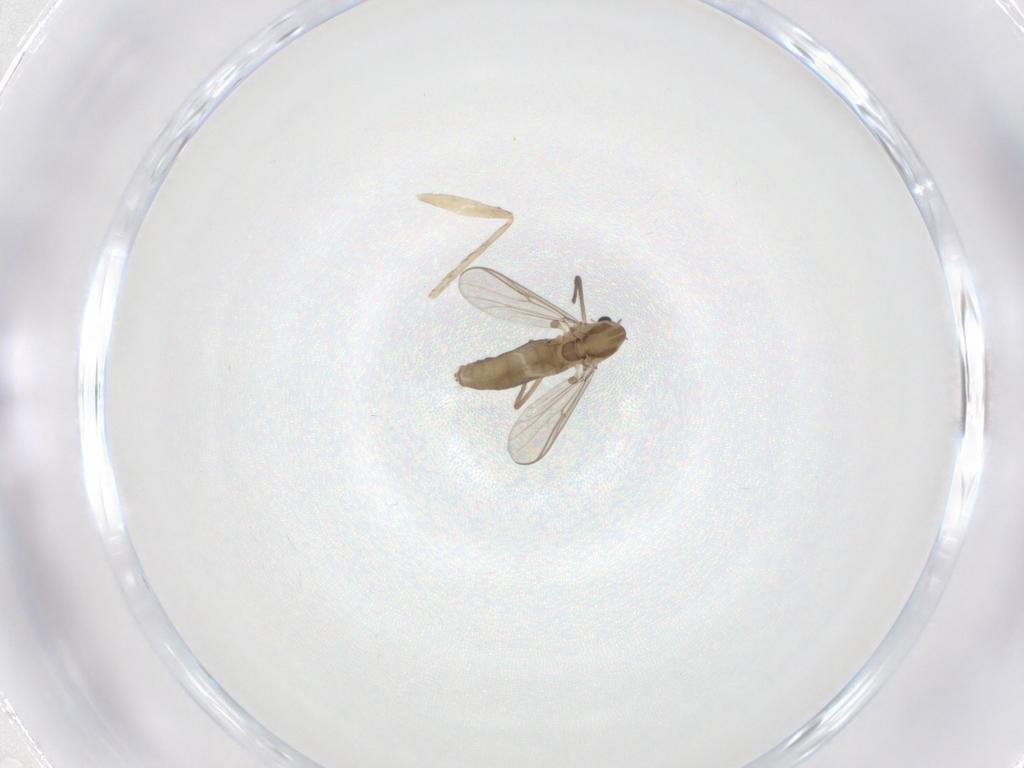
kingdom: Animalia
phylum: Arthropoda
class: Insecta
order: Diptera
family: Chironomidae
